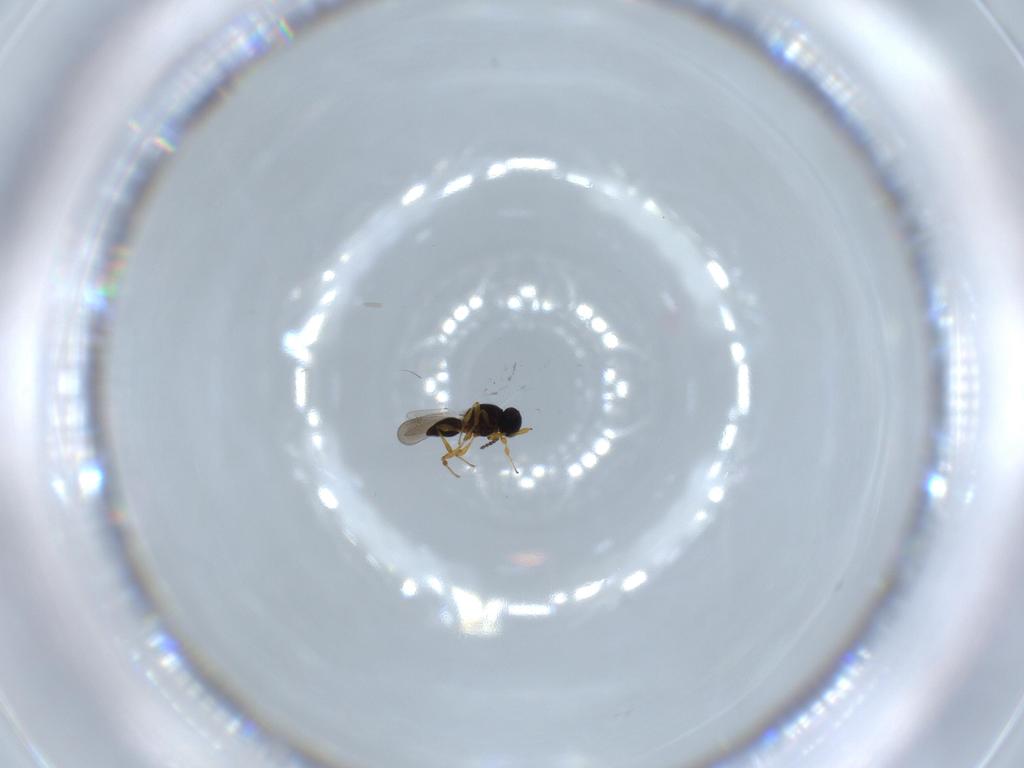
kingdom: Animalia
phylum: Arthropoda
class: Insecta
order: Hymenoptera
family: Platygastridae
